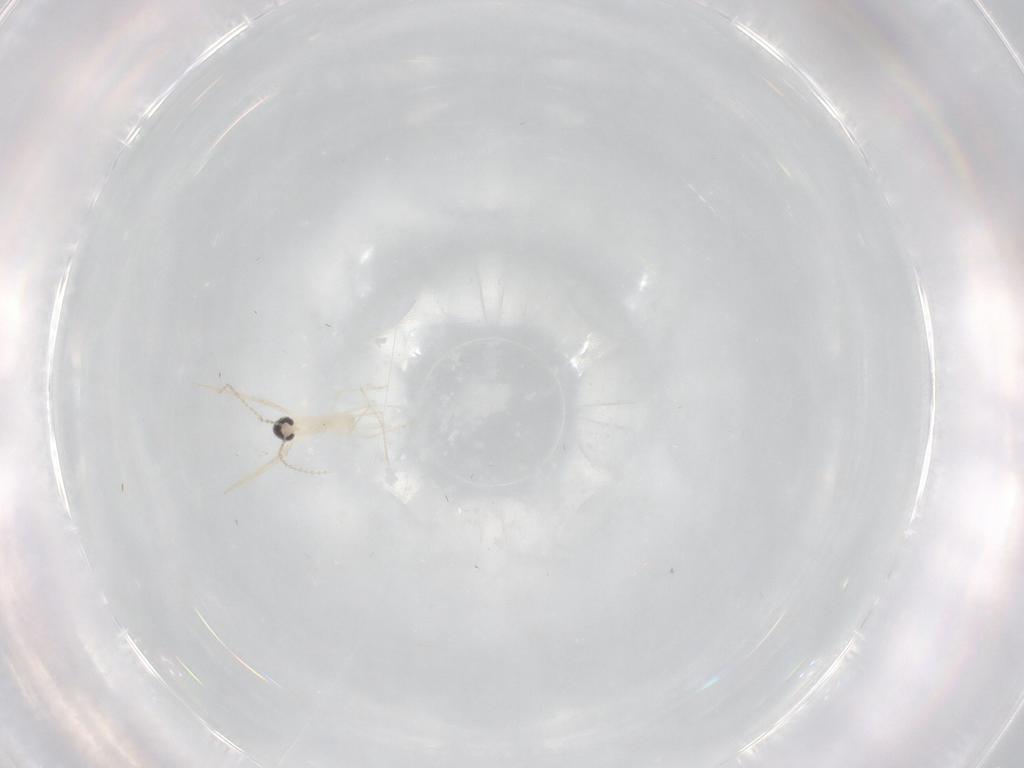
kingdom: Animalia
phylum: Arthropoda
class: Insecta
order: Diptera
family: Cecidomyiidae
